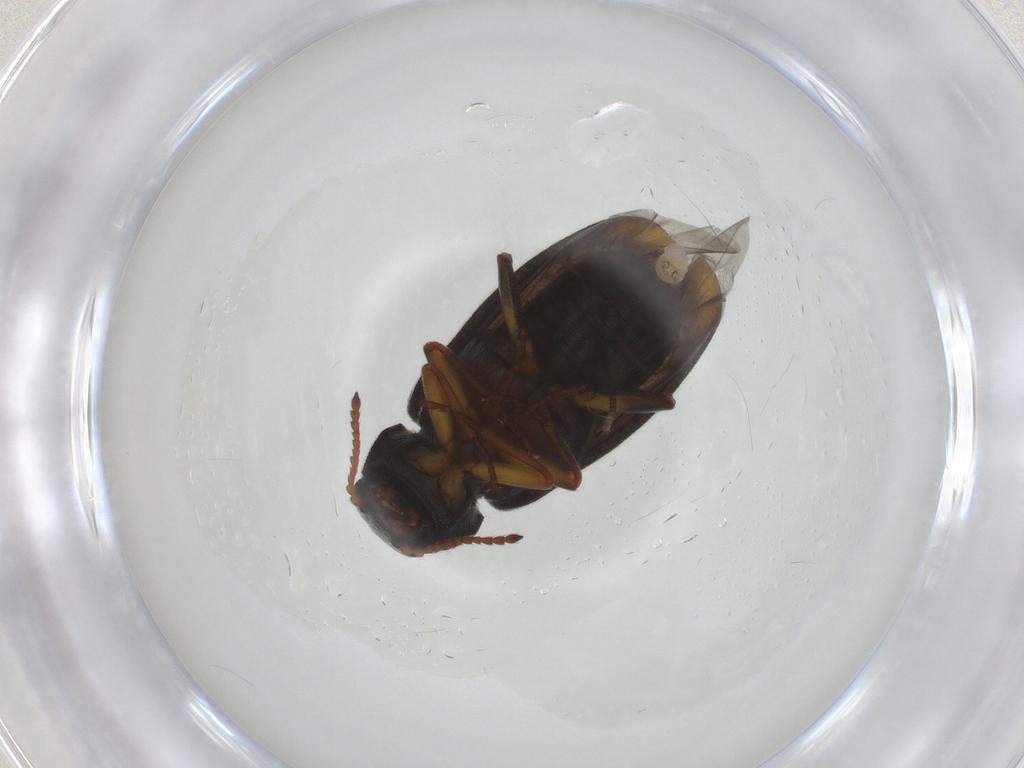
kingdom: Animalia
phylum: Arthropoda
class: Insecta
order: Coleoptera
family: Melyridae
